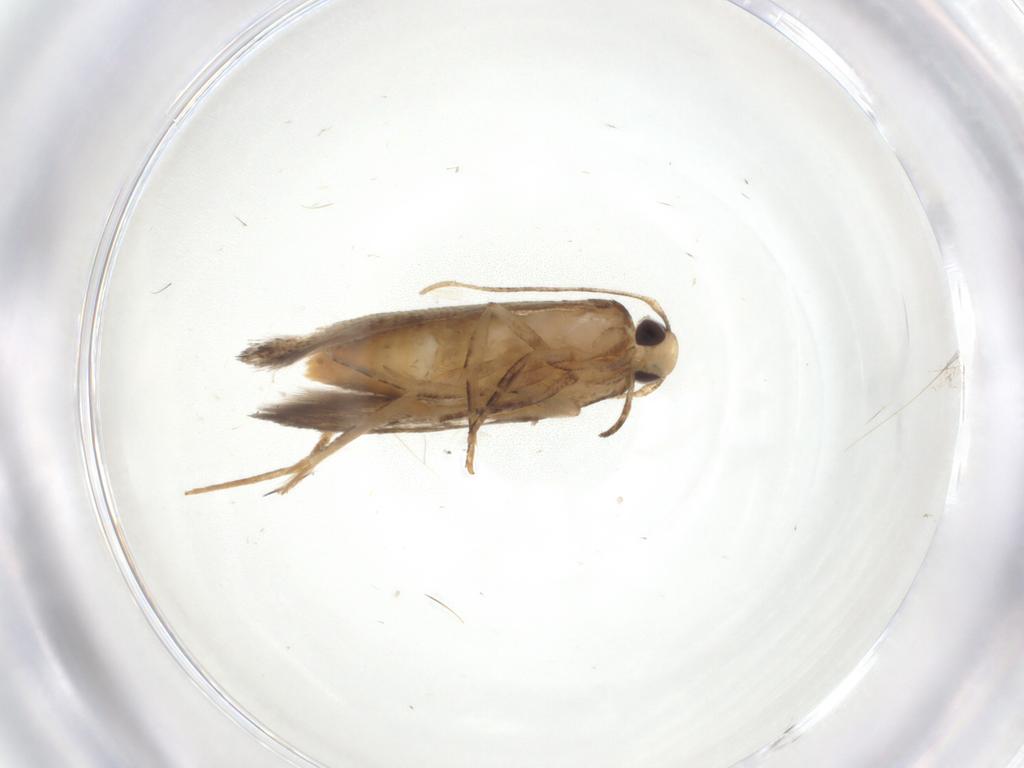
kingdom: Animalia
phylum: Arthropoda
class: Insecta
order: Lepidoptera
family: Cosmopterigidae
